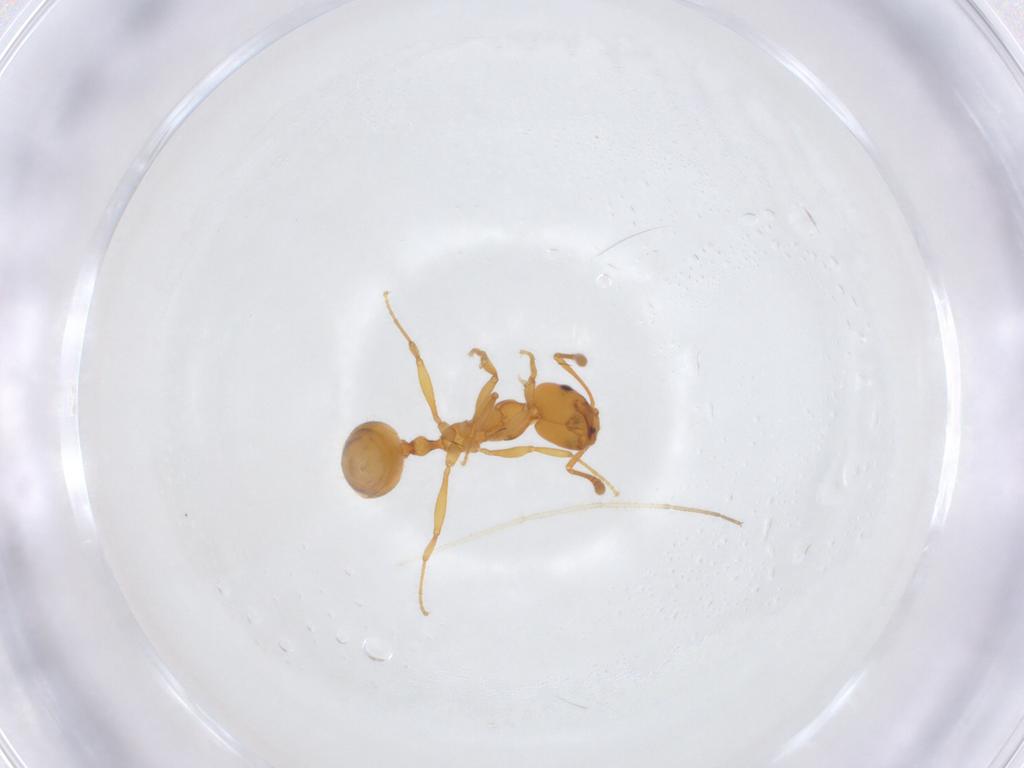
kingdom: Animalia
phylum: Arthropoda
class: Insecta
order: Hymenoptera
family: Formicidae
